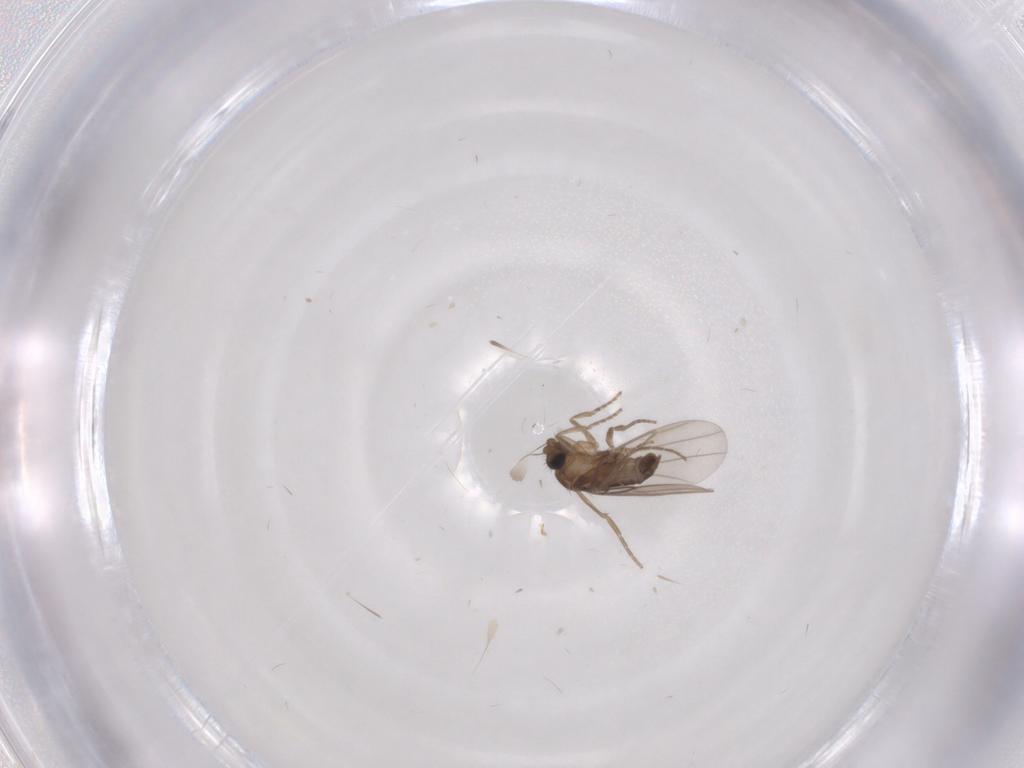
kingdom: Animalia
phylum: Arthropoda
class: Insecta
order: Diptera
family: Phoridae
